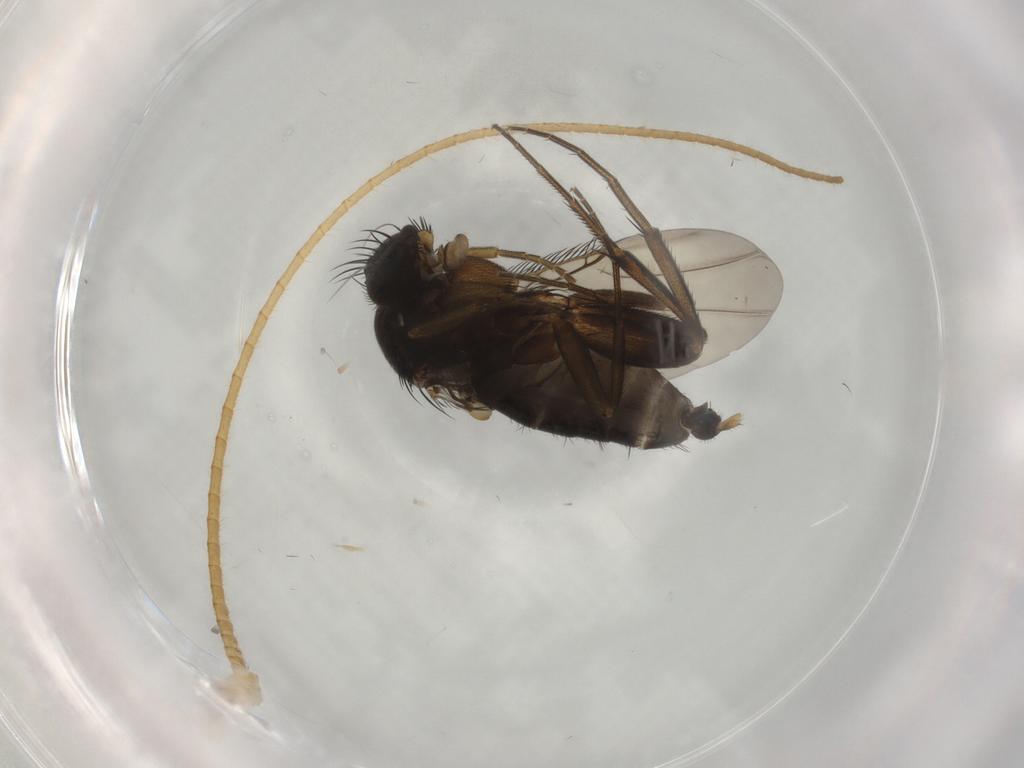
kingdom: Animalia
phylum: Arthropoda
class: Insecta
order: Diptera
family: Phoridae
